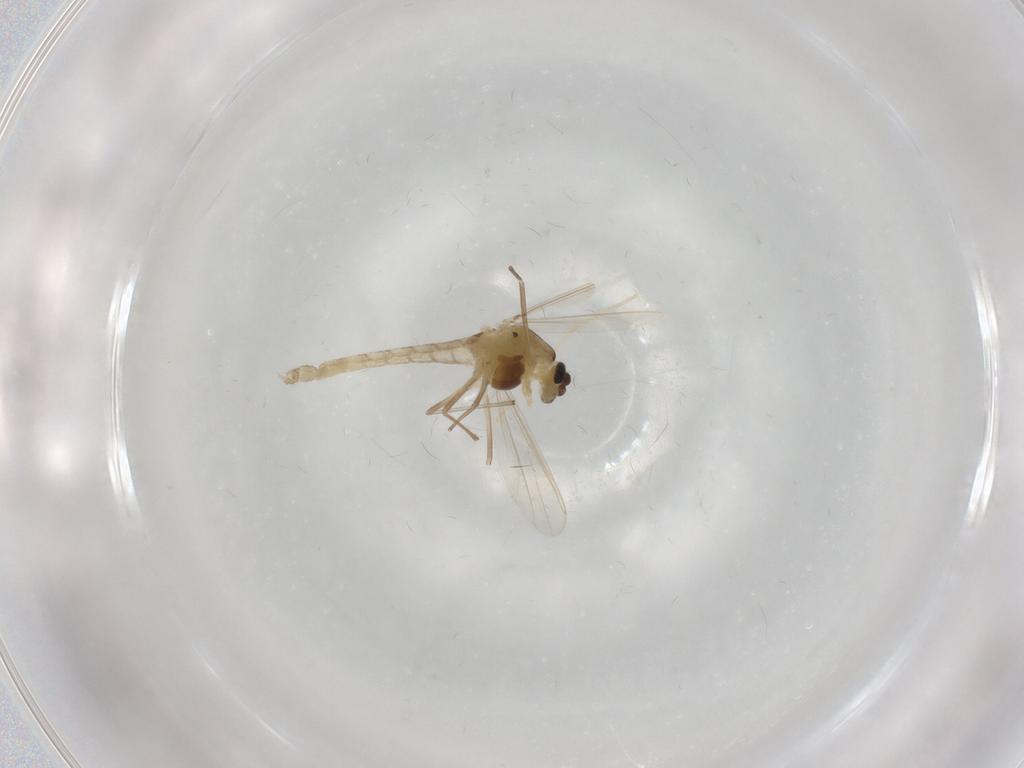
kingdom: Animalia
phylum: Arthropoda
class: Insecta
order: Diptera
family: Chironomidae
